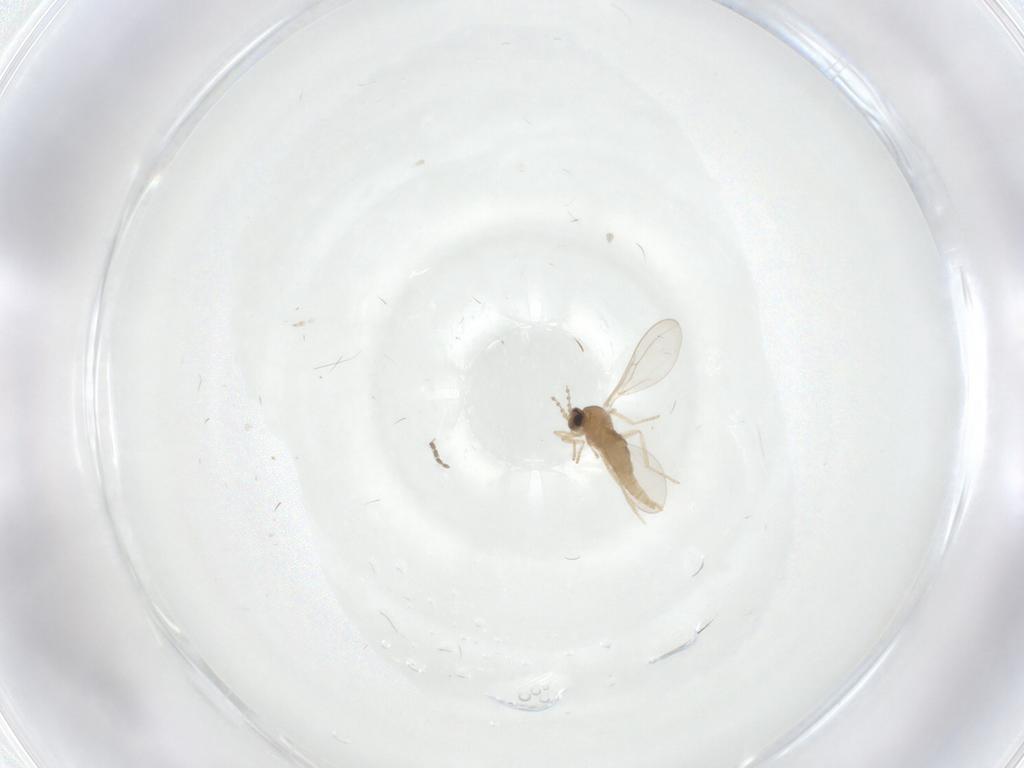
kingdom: Animalia
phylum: Arthropoda
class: Insecta
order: Diptera
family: Cecidomyiidae
